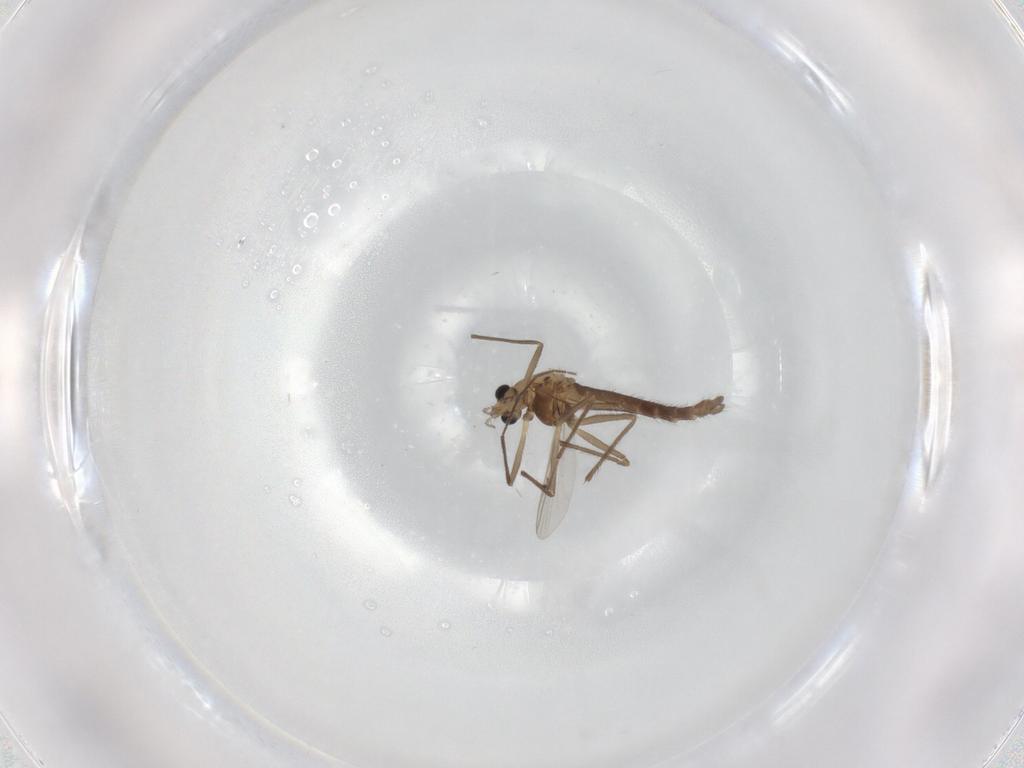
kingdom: Animalia
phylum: Arthropoda
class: Insecta
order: Diptera
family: Chironomidae
